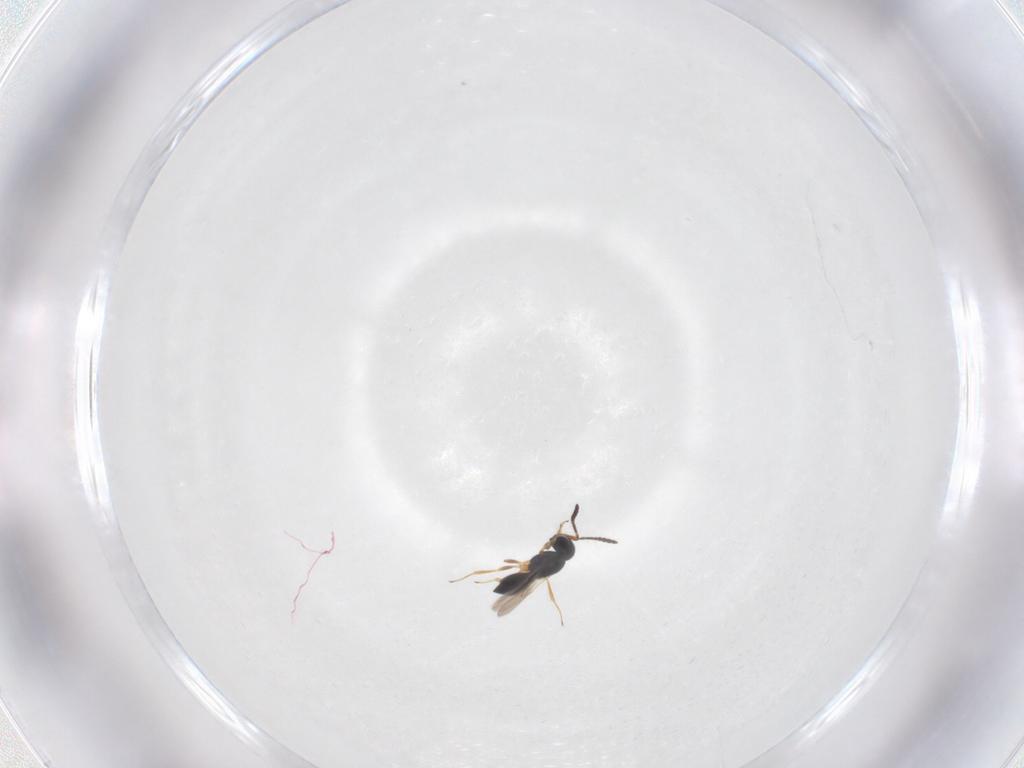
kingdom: Animalia
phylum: Arthropoda
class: Insecta
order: Hymenoptera
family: Scelionidae
